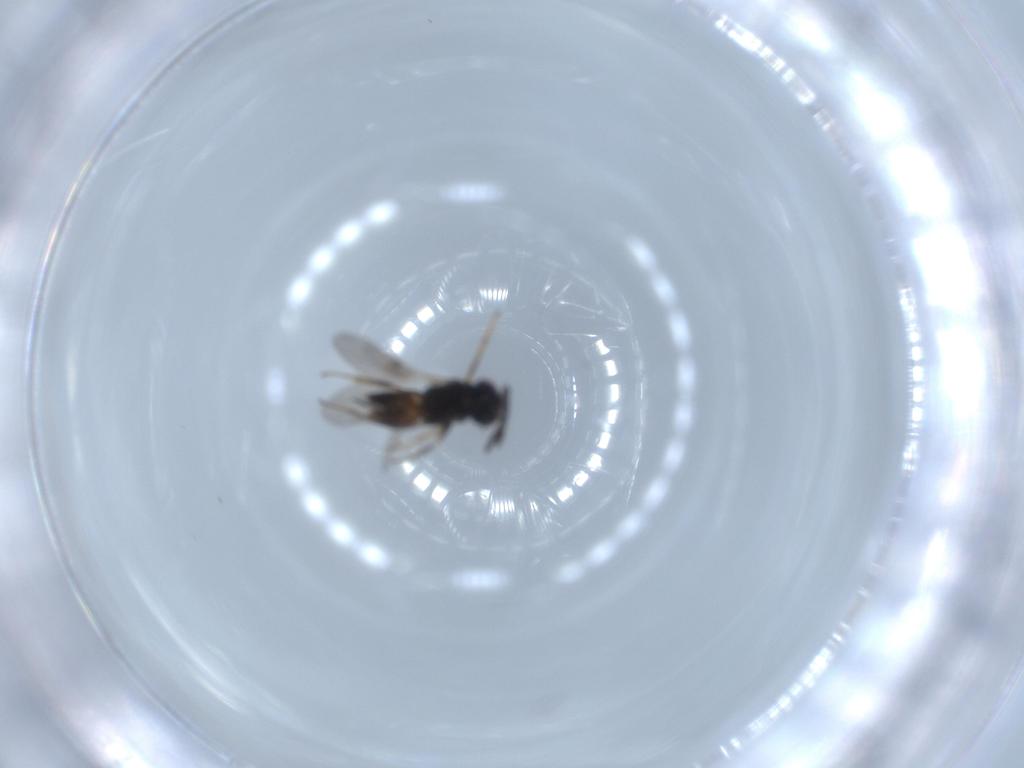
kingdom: Animalia
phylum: Arthropoda
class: Insecta
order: Hymenoptera
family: Encyrtidae
